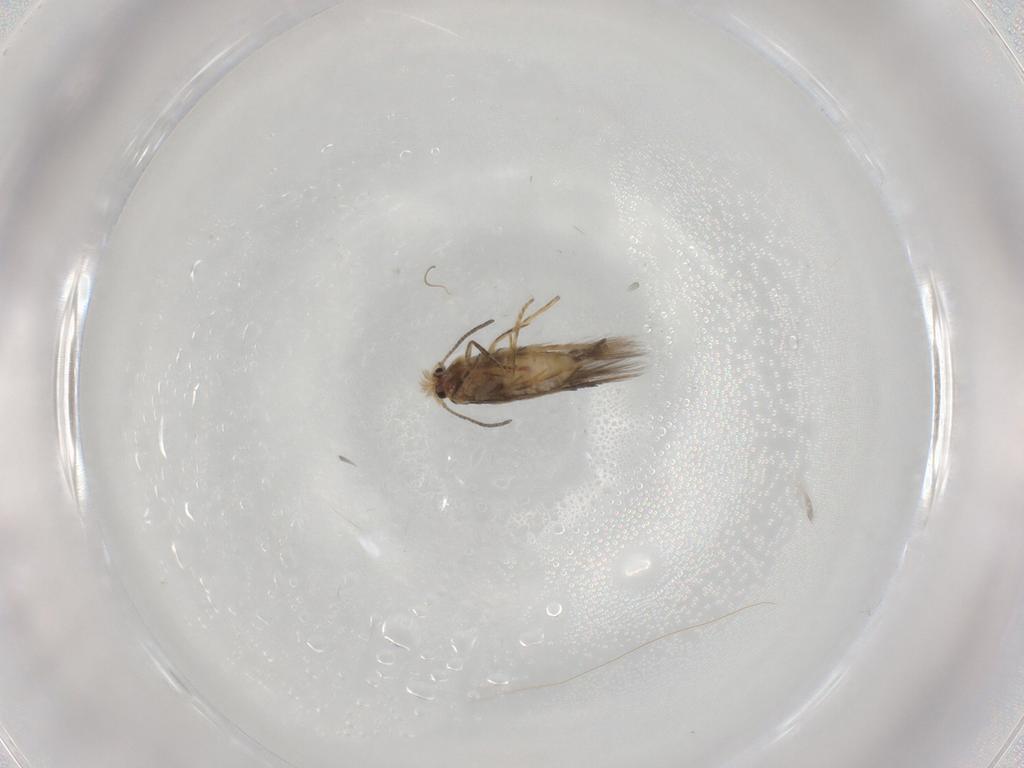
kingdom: Animalia
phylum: Arthropoda
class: Insecta
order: Lepidoptera
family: Nepticulidae
